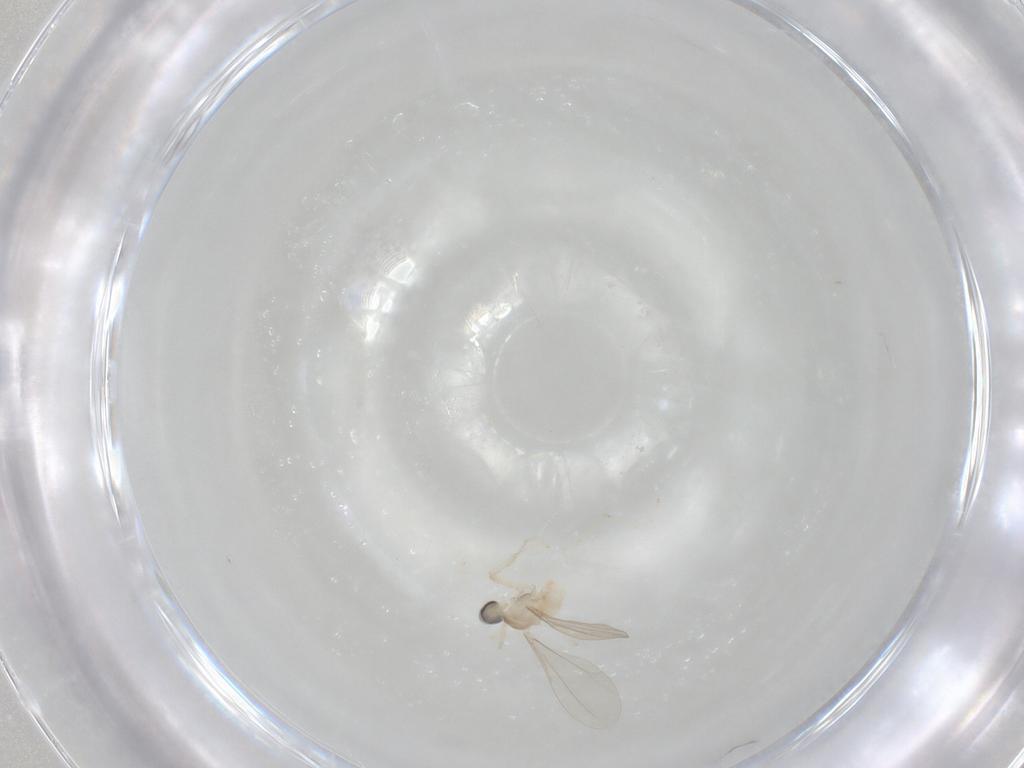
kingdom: Animalia
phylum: Arthropoda
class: Insecta
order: Diptera
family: Cecidomyiidae
